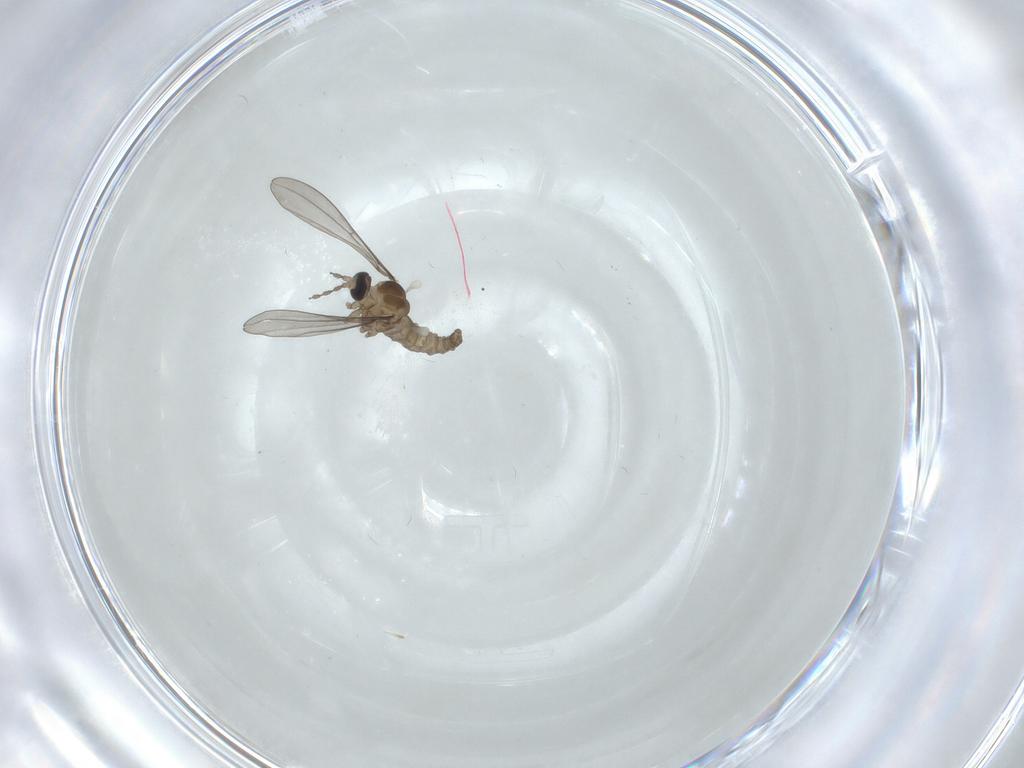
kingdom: Animalia
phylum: Arthropoda
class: Insecta
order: Diptera
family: Cecidomyiidae
